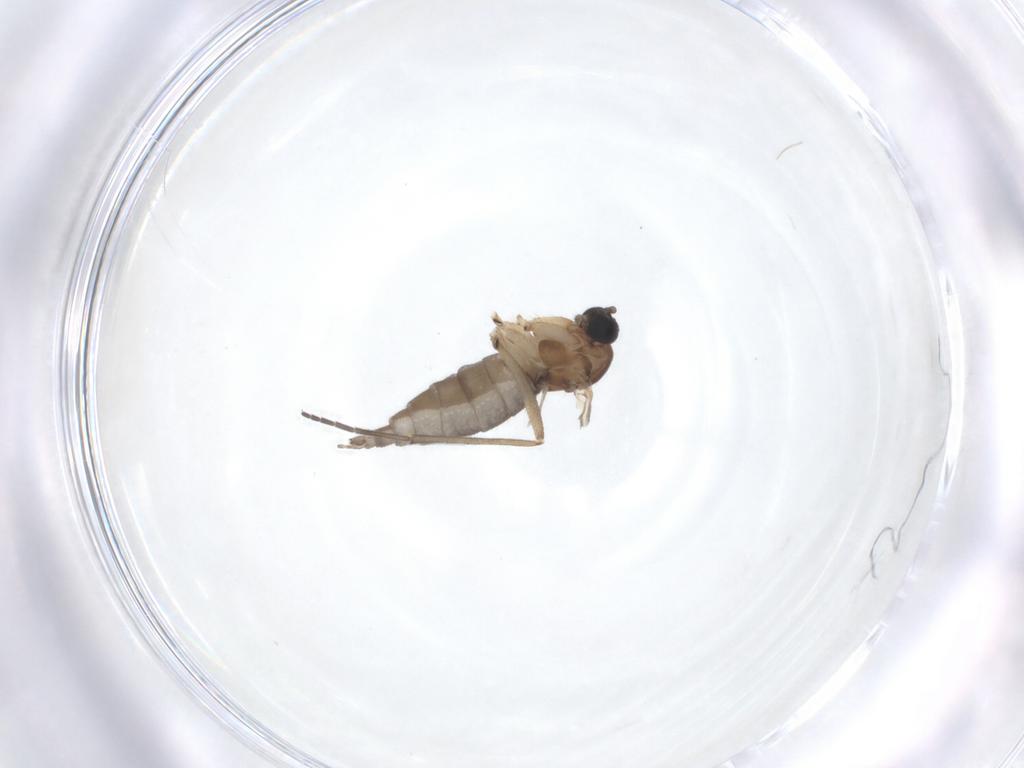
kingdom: Animalia
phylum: Arthropoda
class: Insecta
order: Diptera
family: Sciaridae
